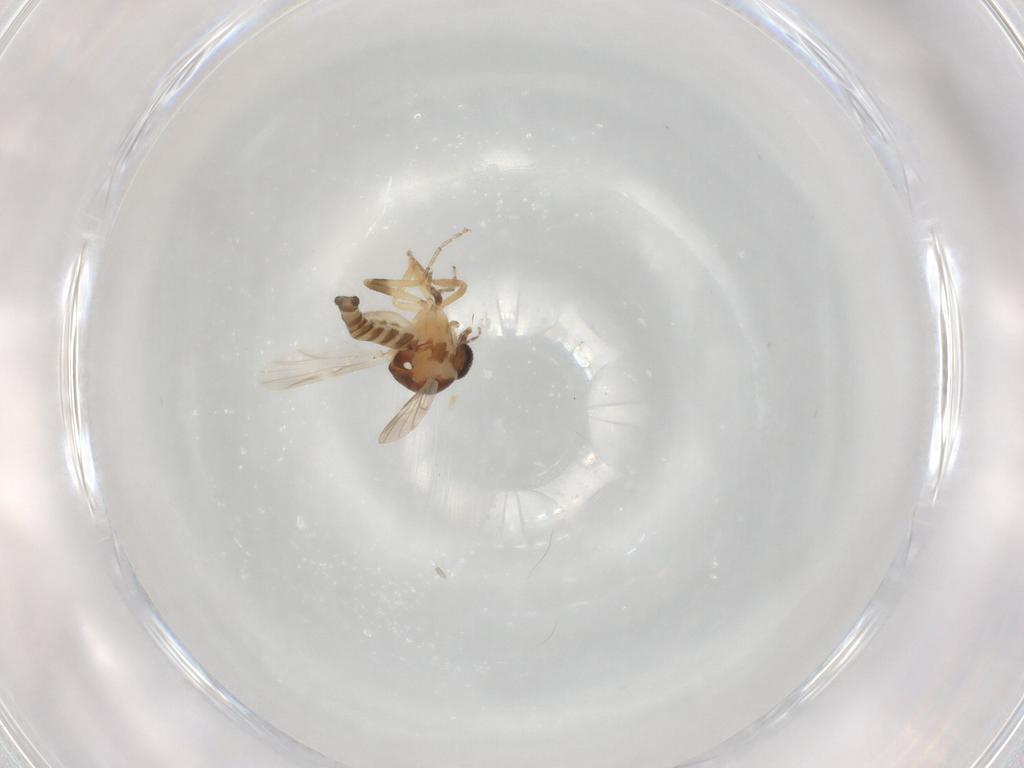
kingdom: Animalia
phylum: Arthropoda
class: Insecta
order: Diptera
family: Ceratopogonidae
